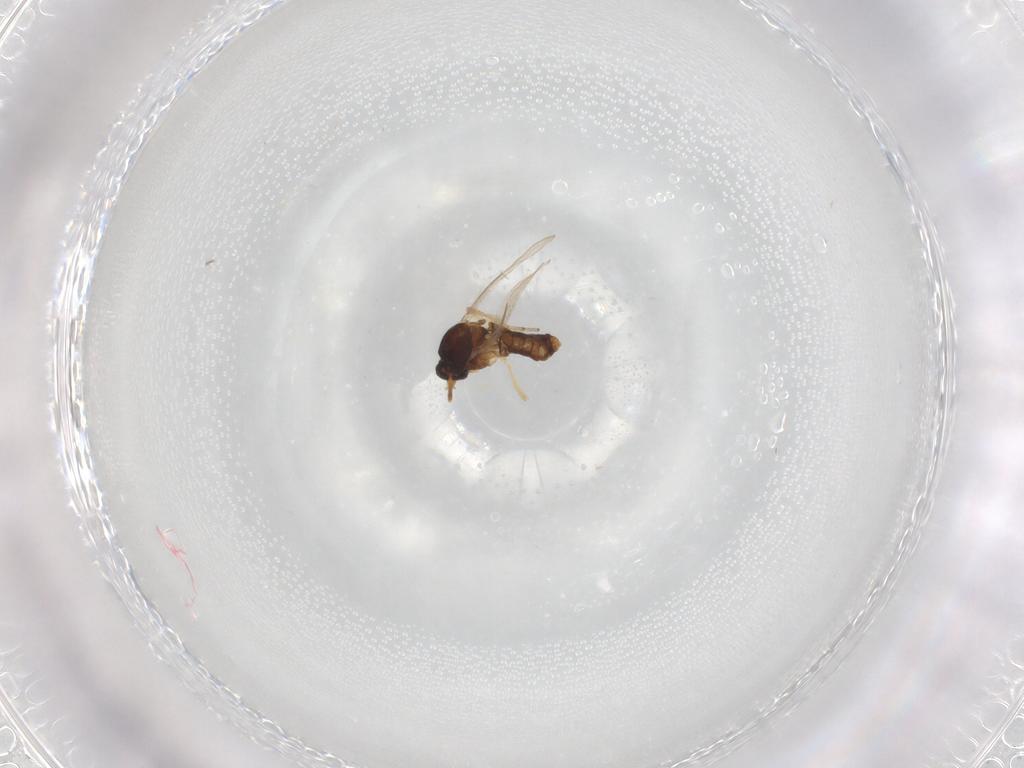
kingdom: Animalia
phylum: Arthropoda
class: Insecta
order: Diptera
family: Ceratopogonidae
